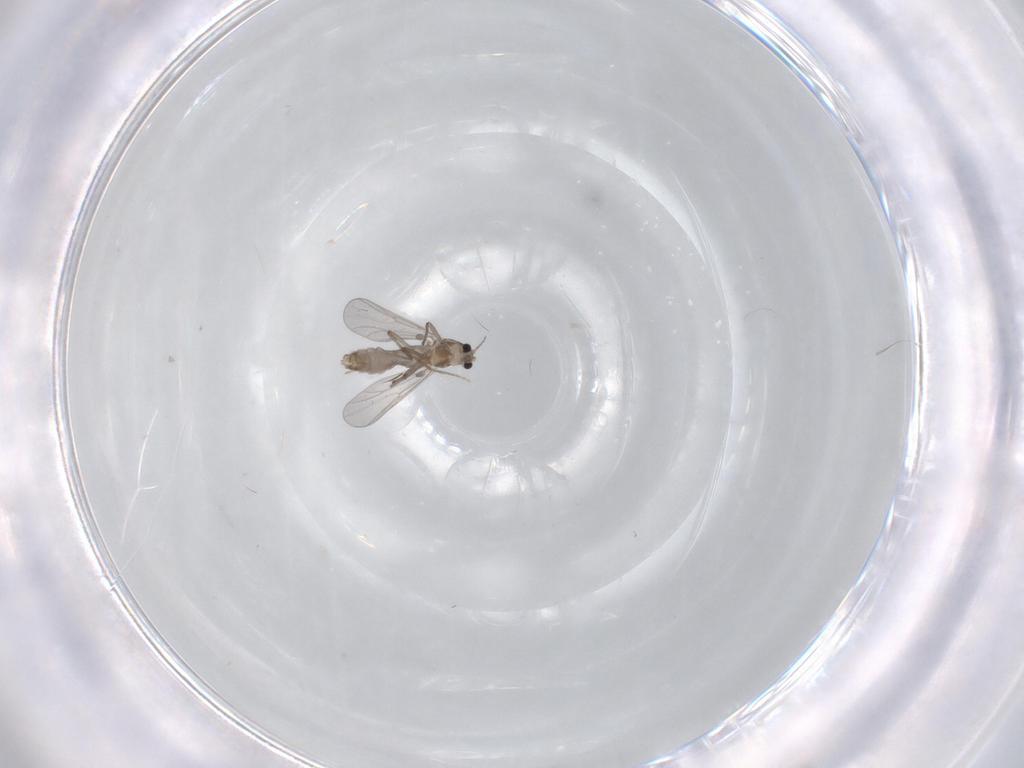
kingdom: Animalia
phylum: Arthropoda
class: Insecta
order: Diptera
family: Chironomidae
